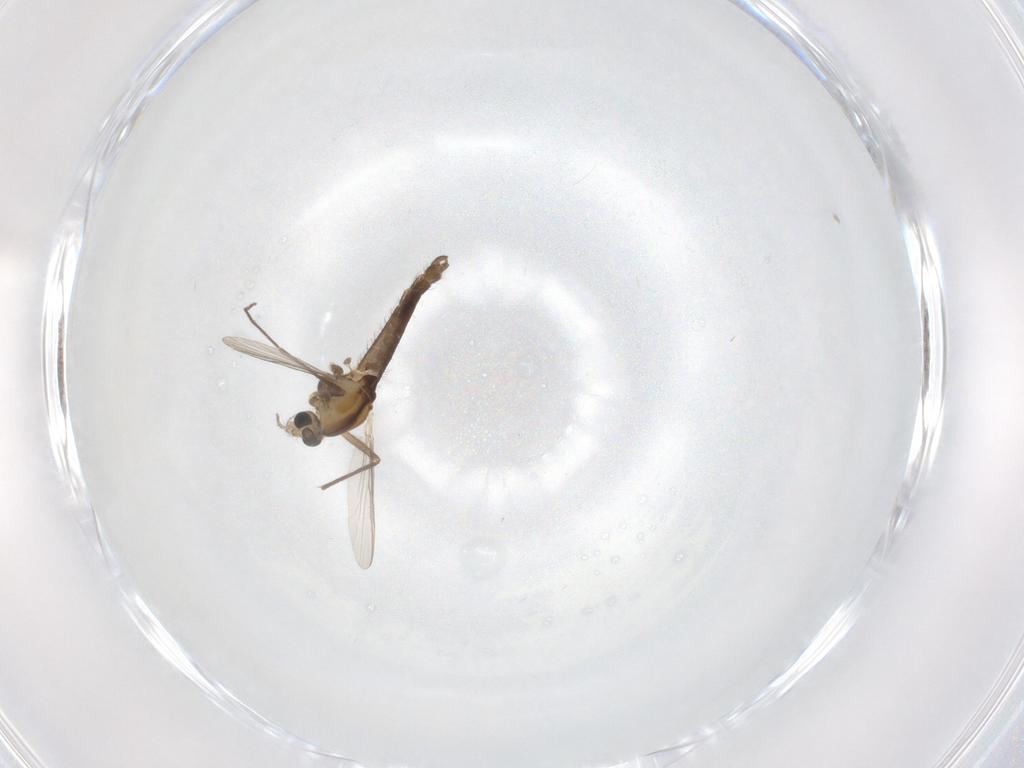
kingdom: Animalia
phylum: Arthropoda
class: Insecta
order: Diptera
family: Chironomidae
